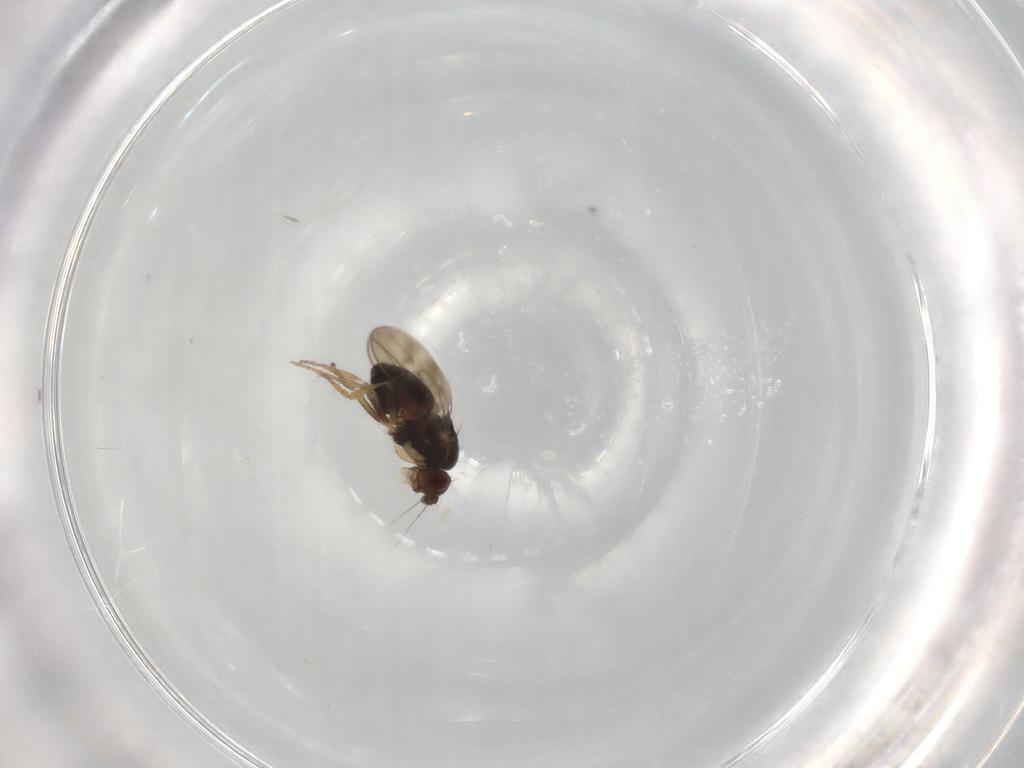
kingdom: Animalia
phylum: Arthropoda
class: Insecta
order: Diptera
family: Sphaeroceridae
